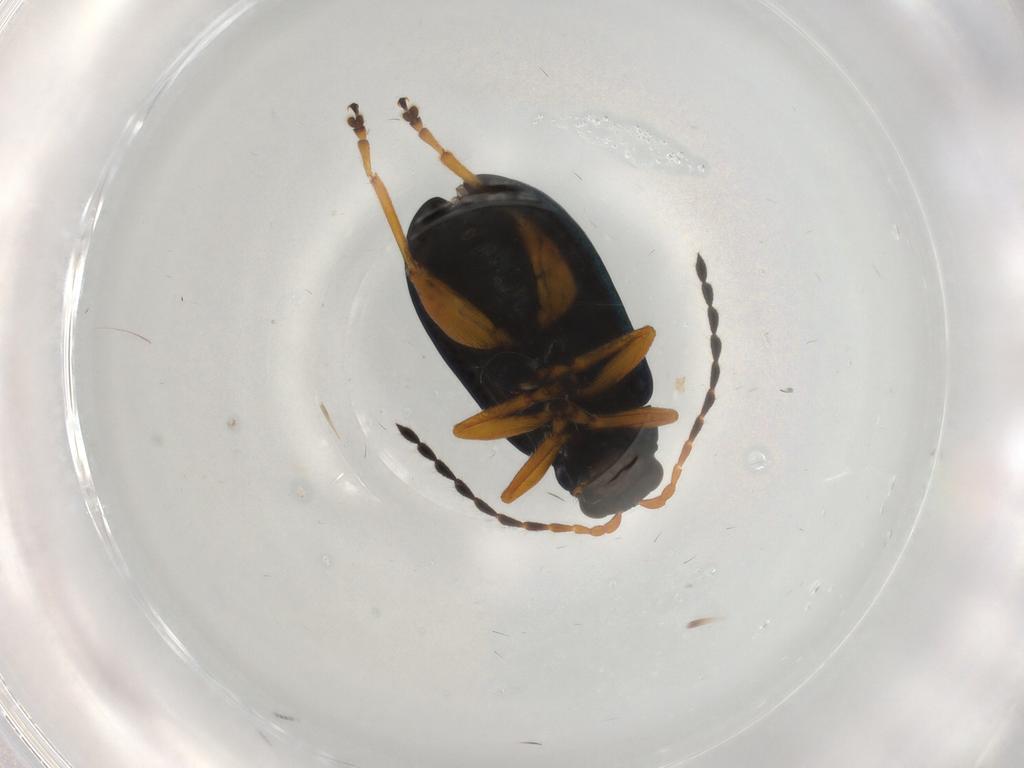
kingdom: Animalia
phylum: Arthropoda
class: Insecta
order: Coleoptera
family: Chrysomelidae
